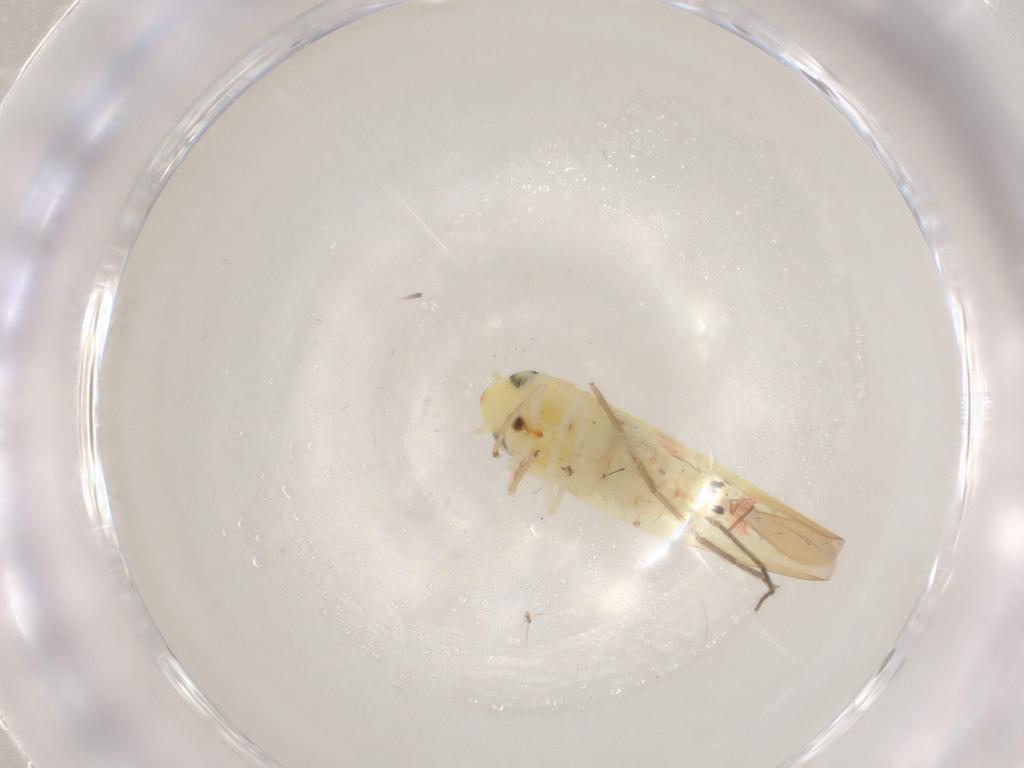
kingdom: Animalia
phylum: Arthropoda
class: Insecta
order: Hemiptera
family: Cicadellidae
